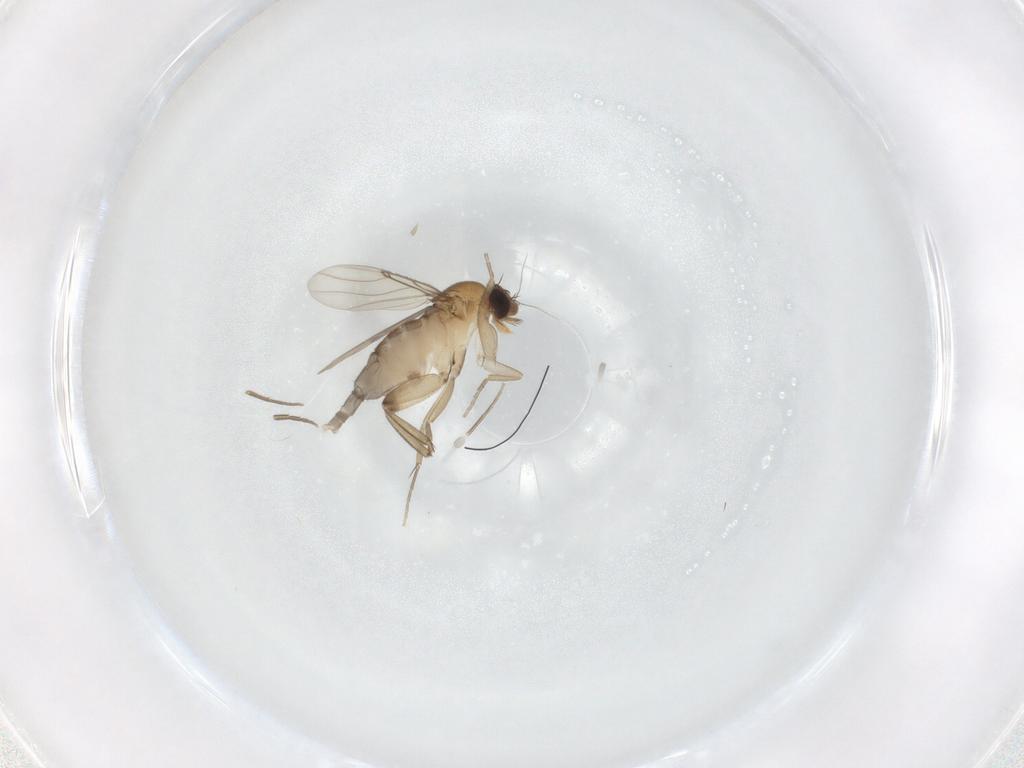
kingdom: Animalia
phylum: Arthropoda
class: Insecta
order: Diptera
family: Phoridae
